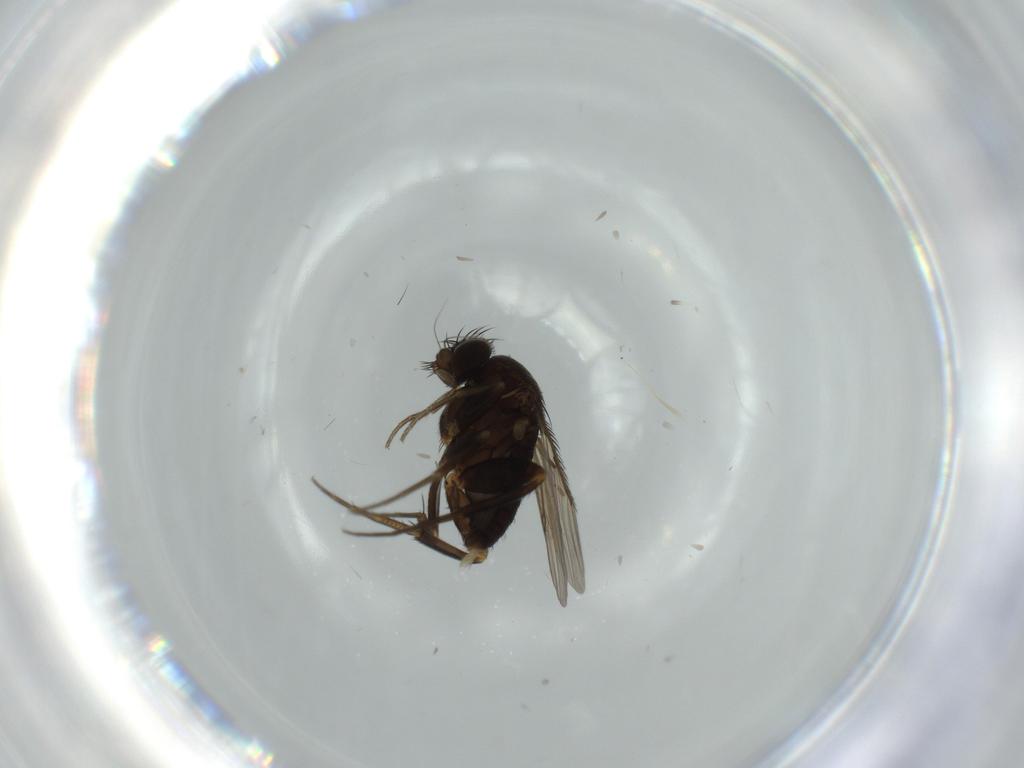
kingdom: Animalia
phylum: Arthropoda
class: Insecta
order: Diptera
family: Phoridae
